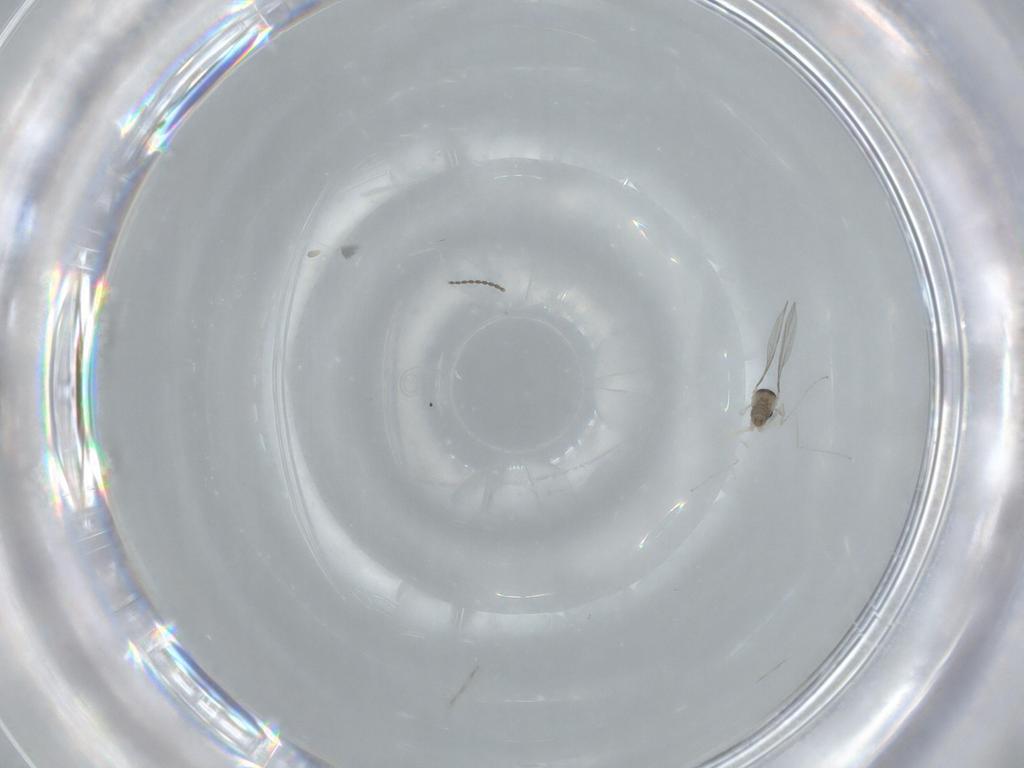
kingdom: Animalia
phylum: Arthropoda
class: Insecta
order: Diptera
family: Cecidomyiidae
